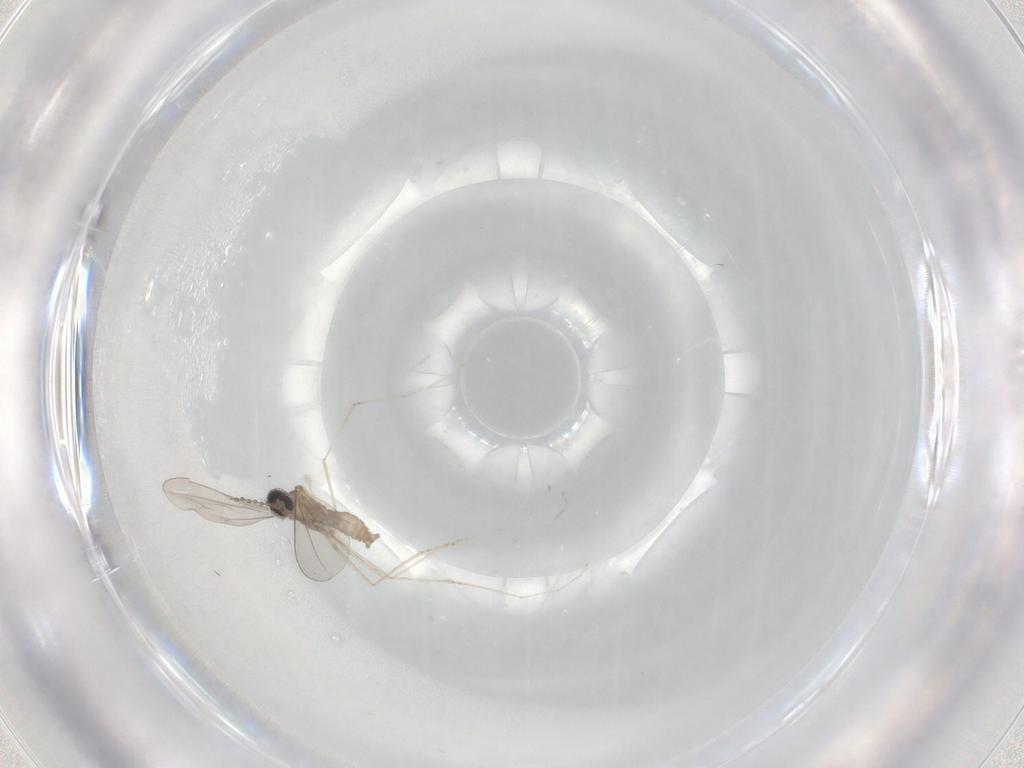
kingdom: Animalia
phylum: Arthropoda
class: Insecta
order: Diptera
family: Cecidomyiidae
